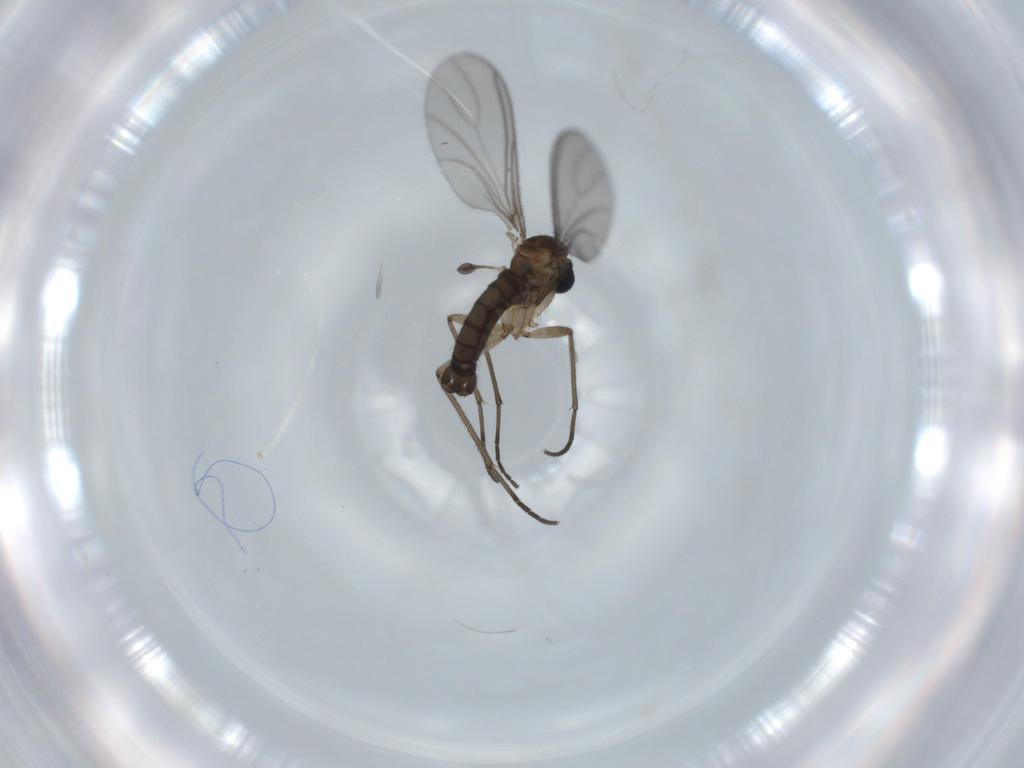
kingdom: Animalia
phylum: Arthropoda
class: Insecta
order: Diptera
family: Sciaridae
